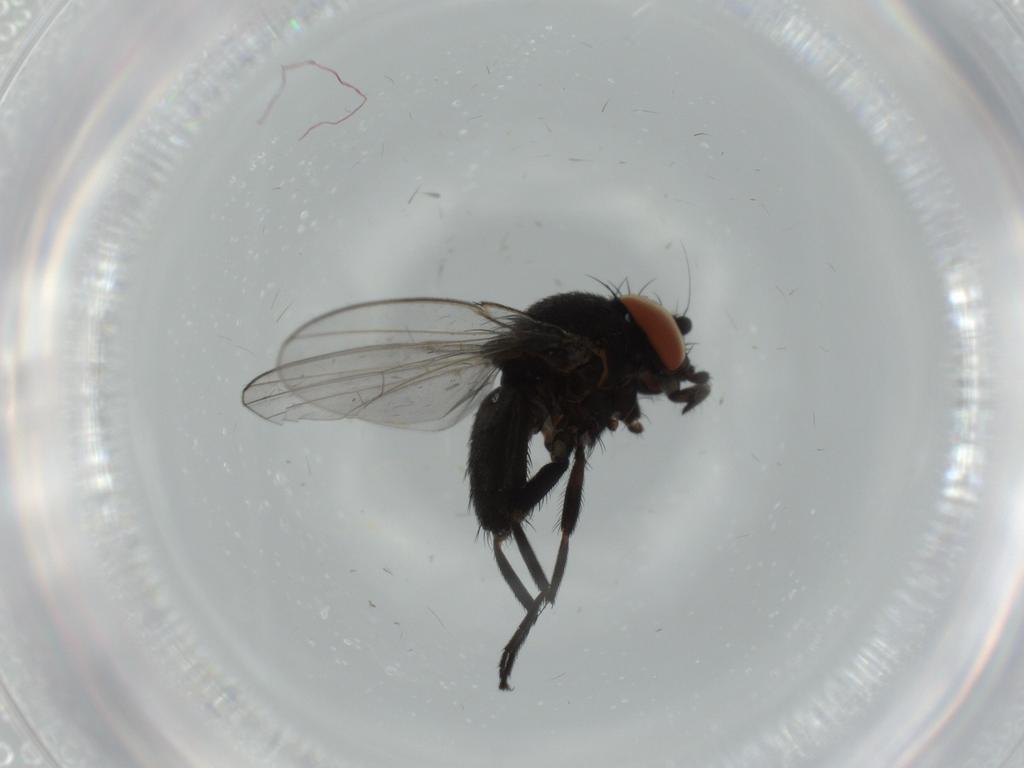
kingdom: Animalia
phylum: Arthropoda
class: Insecta
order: Diptera
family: Milichiidae
